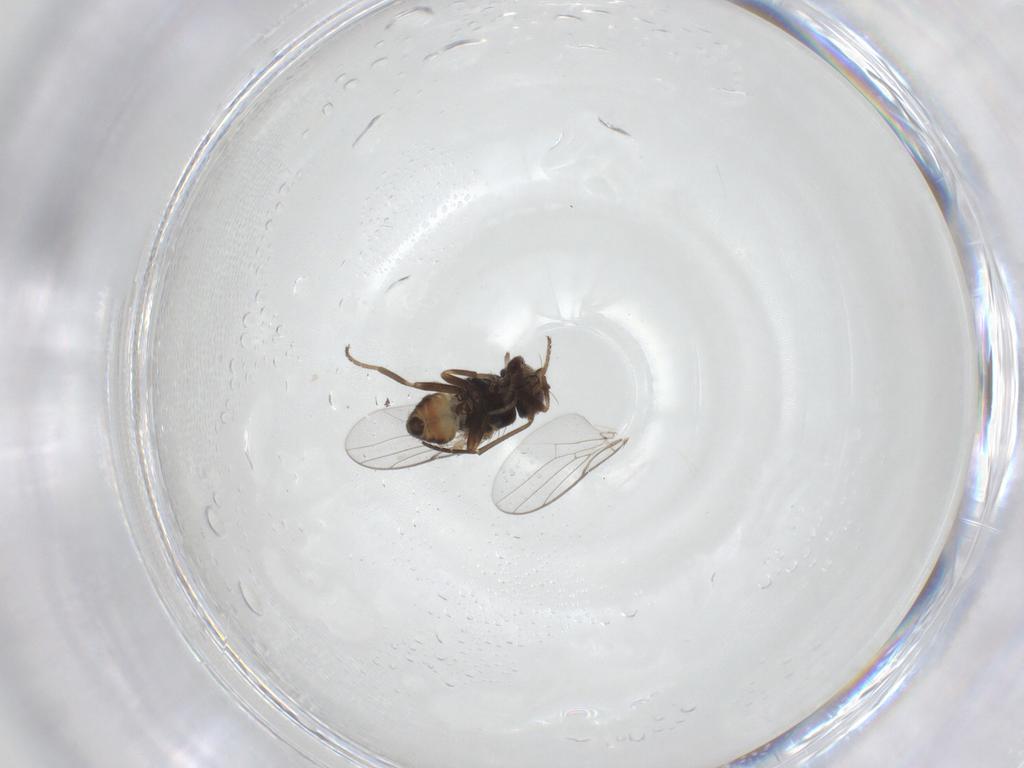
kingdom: Animalia
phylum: Arthropoda
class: Insecta
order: Diptera
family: Chloropidae
